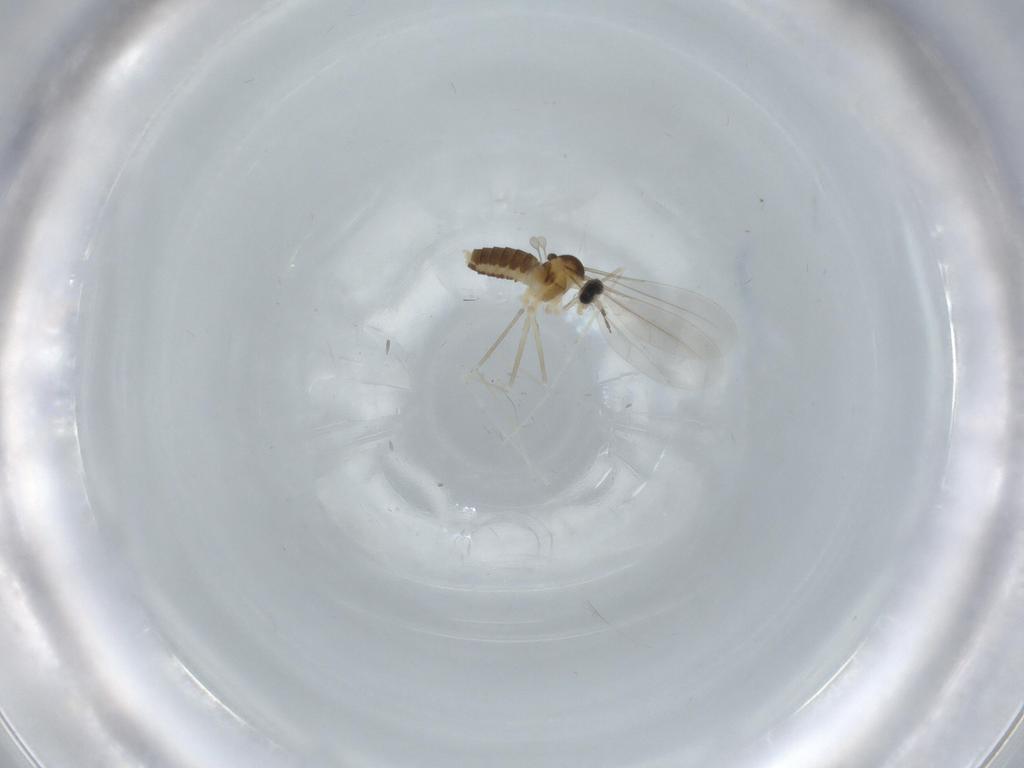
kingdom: Animalia
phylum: Arthropoda
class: Insecta
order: Diptera
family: Cecidomyiidae
